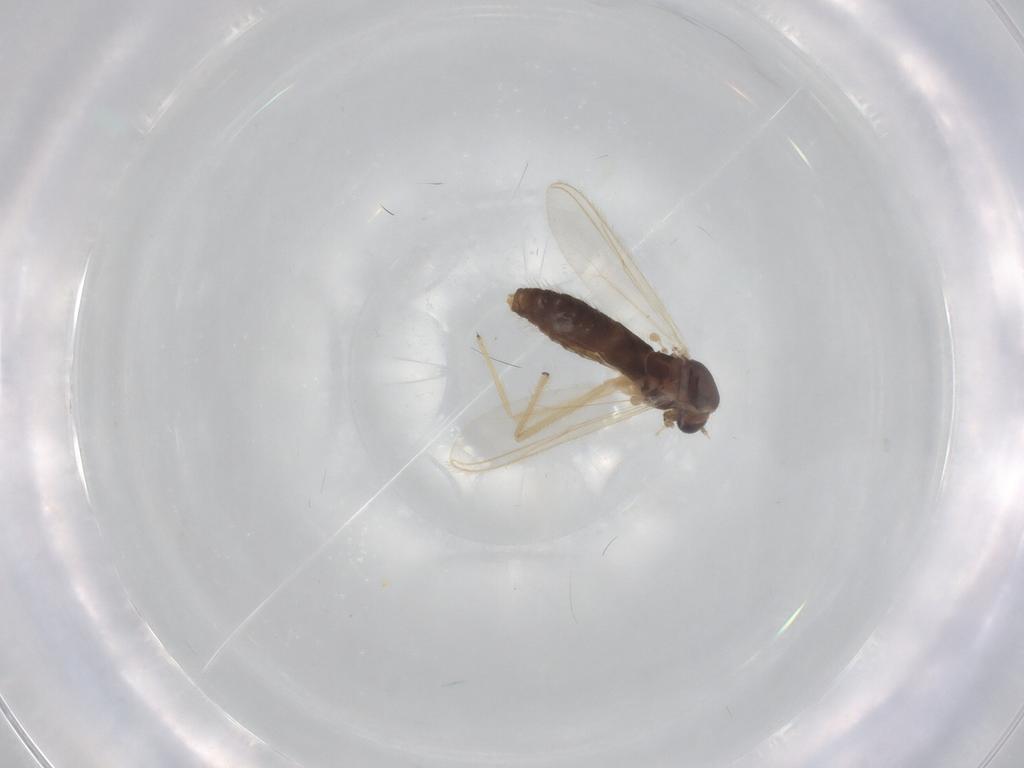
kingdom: Animalia
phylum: Arthropoda
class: Insecta
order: Diptera
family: Chironomidae
